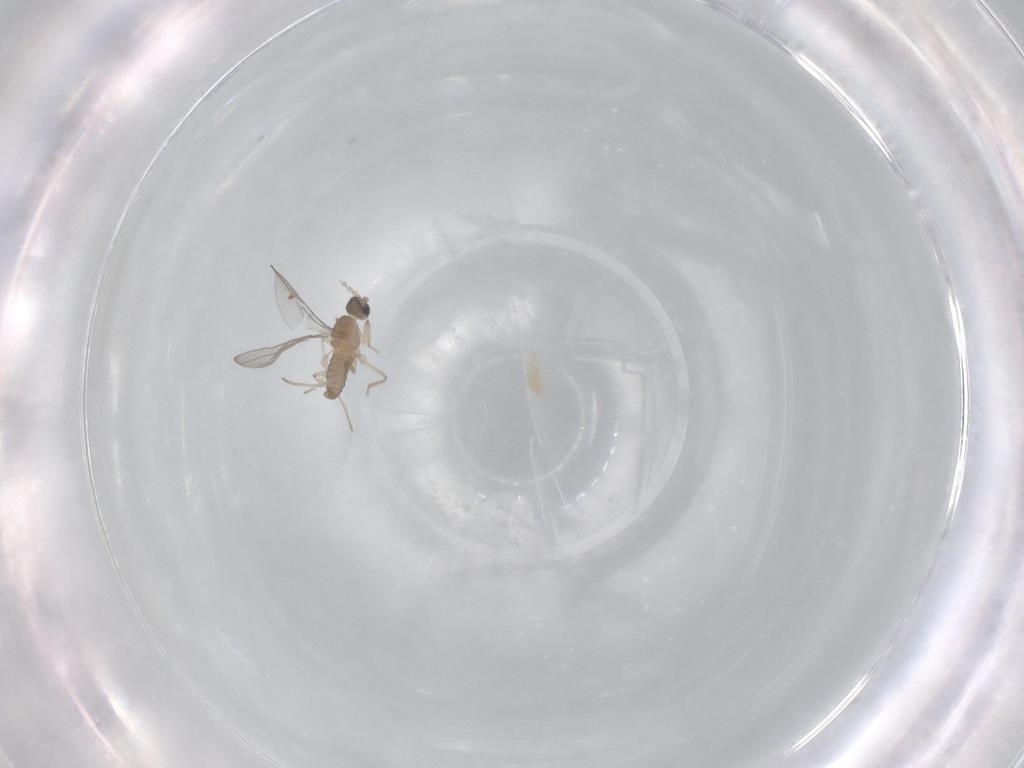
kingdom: Animalia
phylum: Arthropoda
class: Insecta
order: Diptera
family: Cecidomyiidae
